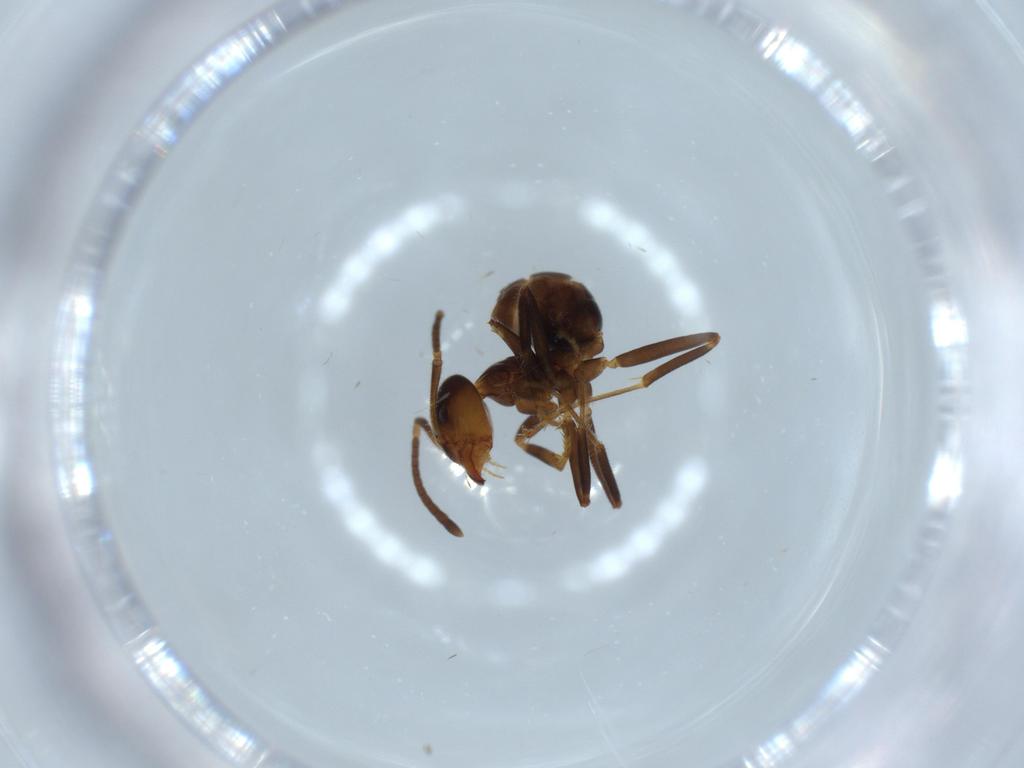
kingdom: Animalia
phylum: Arthropoda
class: Insecta
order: Hymenoptera
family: Formicidae
